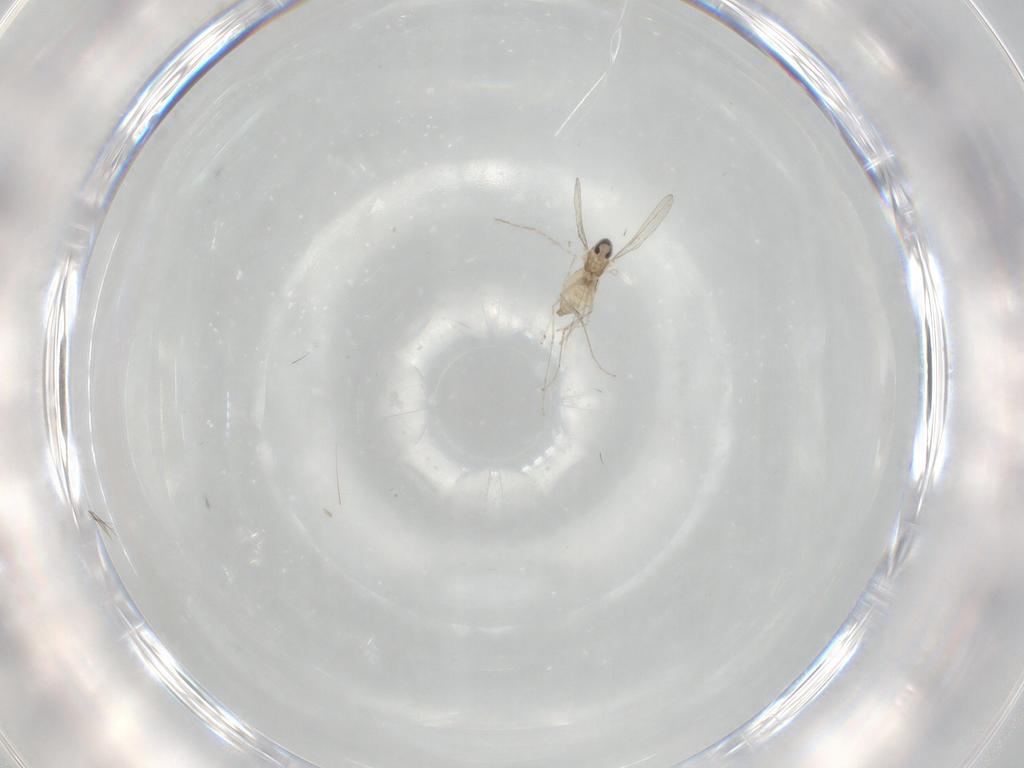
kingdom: Animalia
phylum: Arthropoda
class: Insecta
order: Diptera
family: Cecidomyiidae
